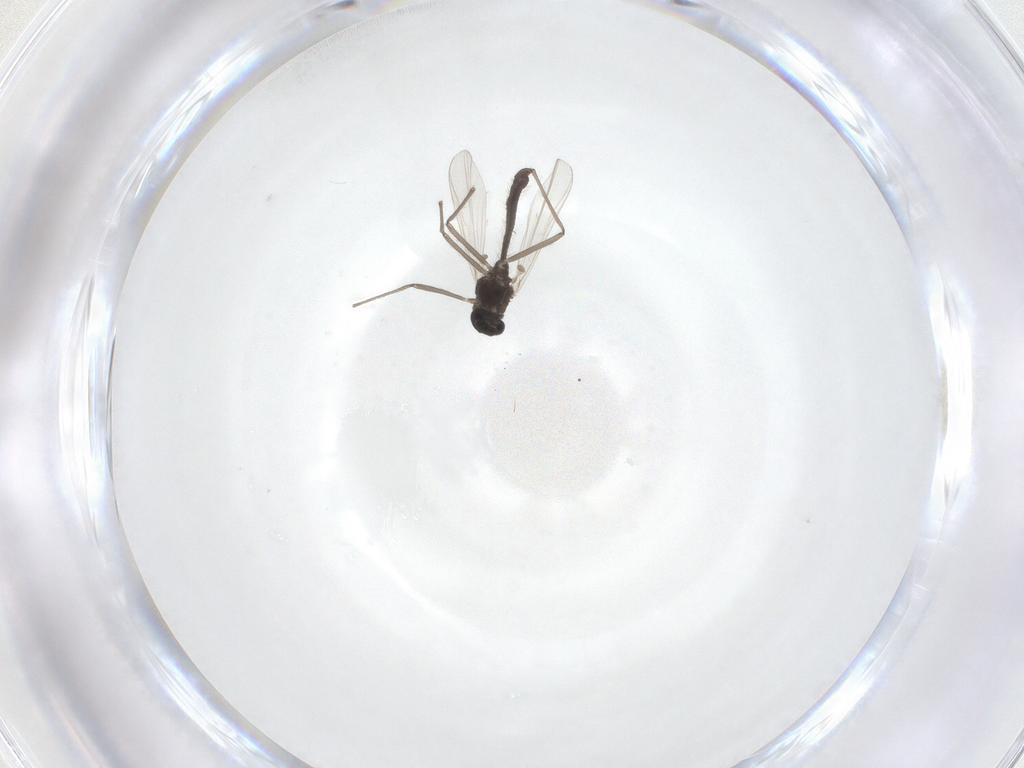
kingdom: Animalia
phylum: Arthropoda
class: Insecta
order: Diptera
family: Chironomidae
